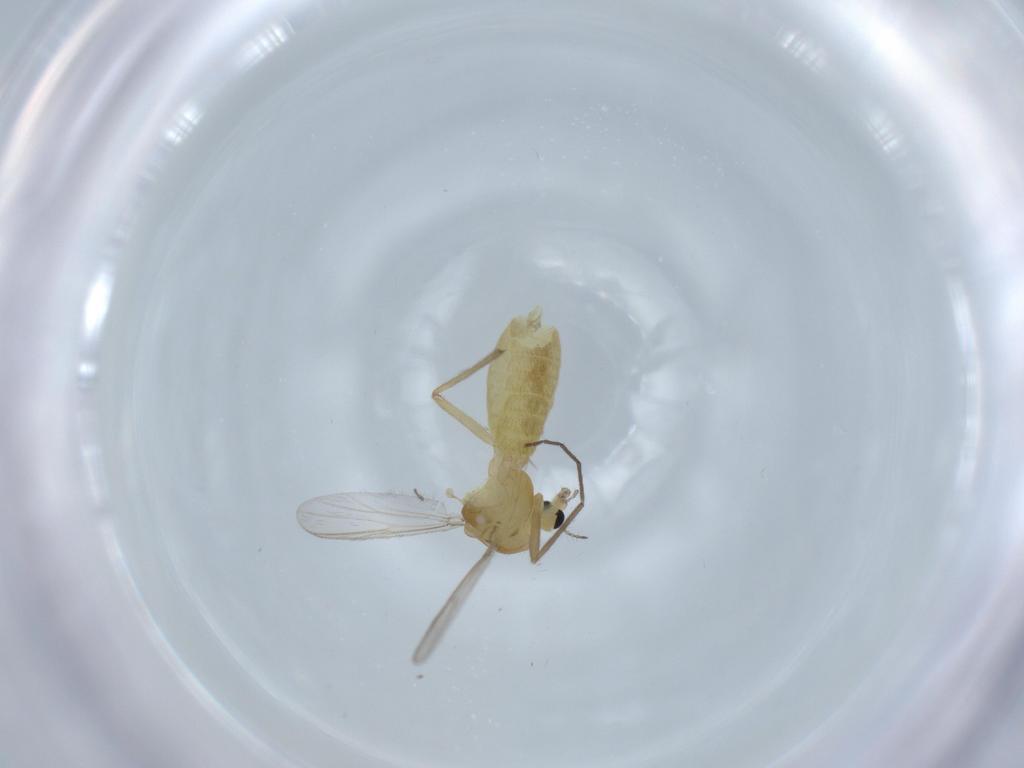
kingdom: Animalia
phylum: Arthropoda
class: Insecta
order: Diptera
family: Chironomidae
